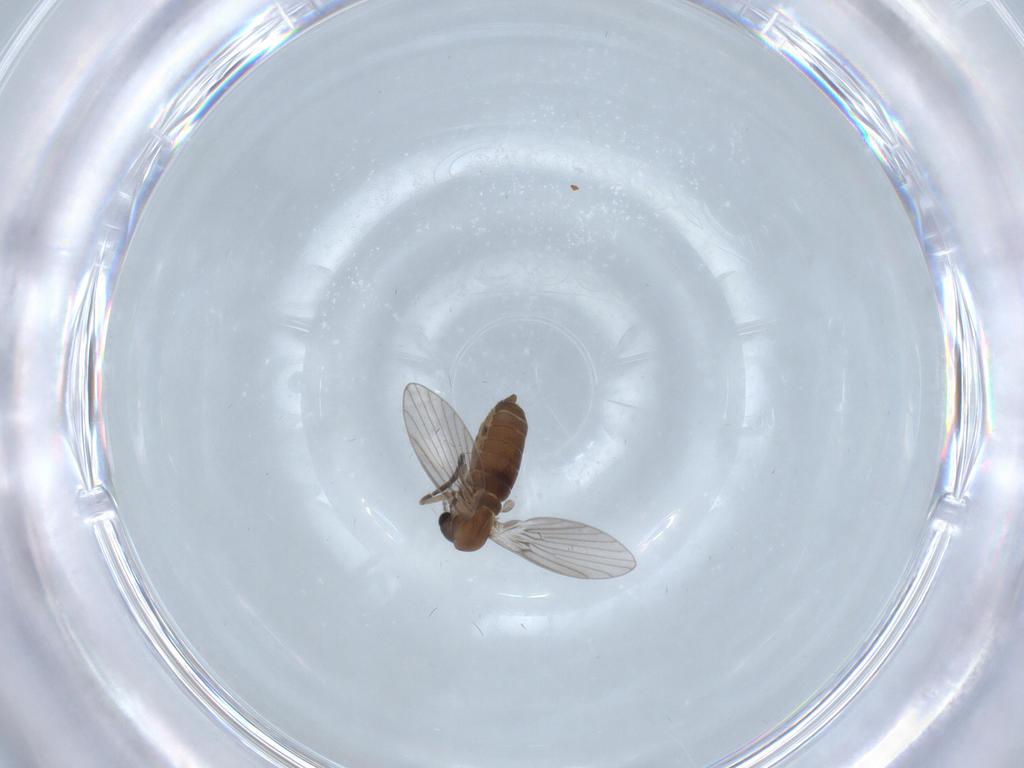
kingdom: Animalia
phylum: Arthropoda
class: Insecta
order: Diptera
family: Psychodidae
